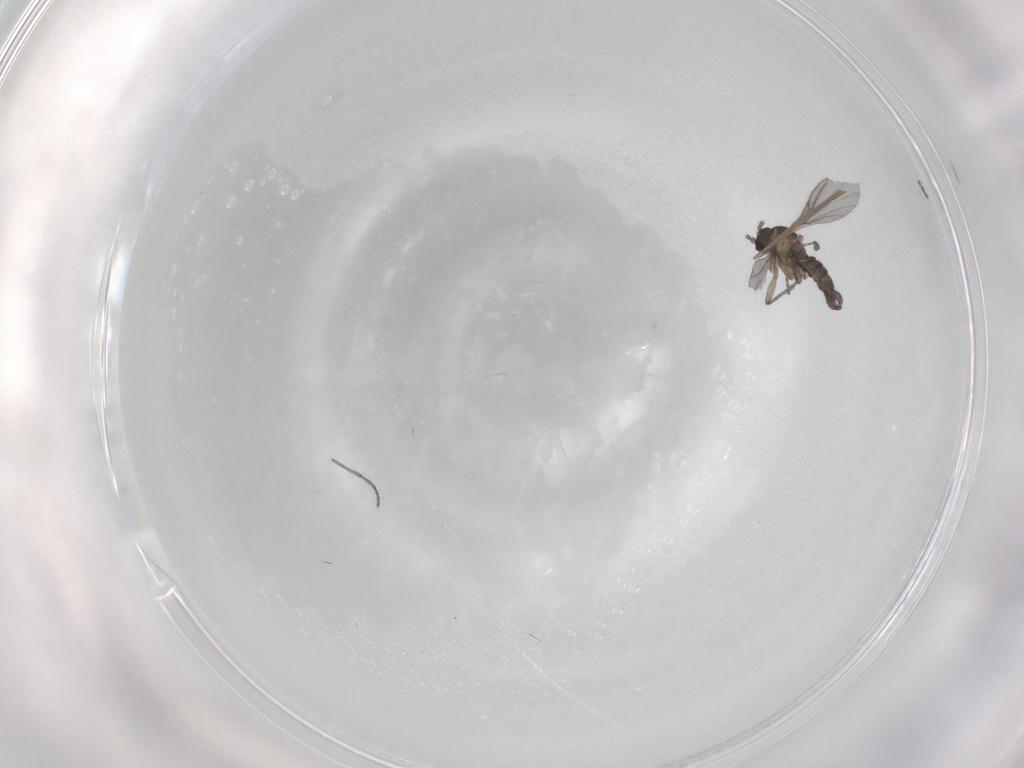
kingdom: Animalia
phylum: Arthropoda
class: Insecta
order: Diptera
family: Sciaridae
